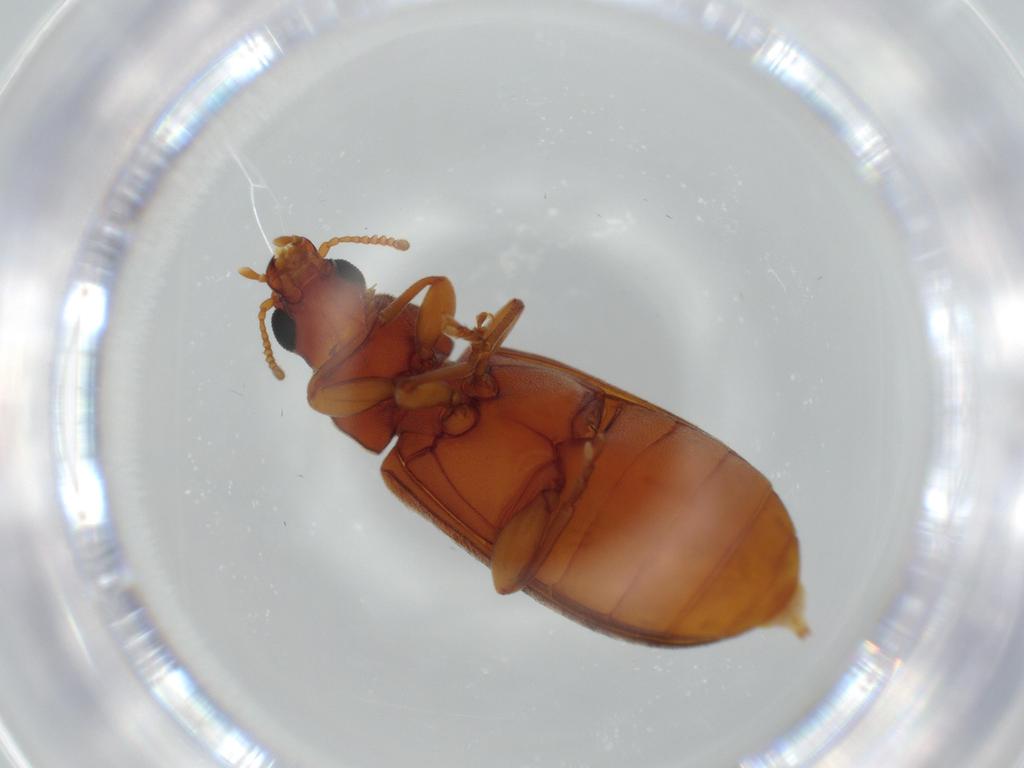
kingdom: Animalia
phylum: Arthropoda
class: Insecta
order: Coleoptera
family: Mycteridae
